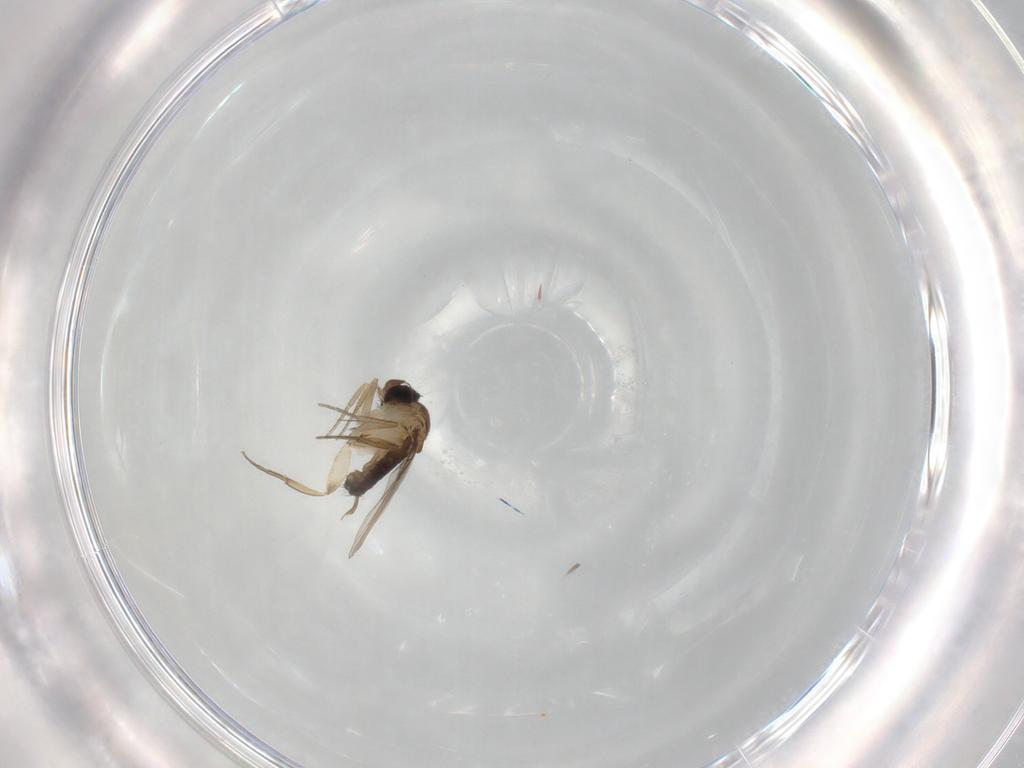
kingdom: Animalia
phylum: Arthropoda
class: Insecta
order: Diptera
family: Phoridae
